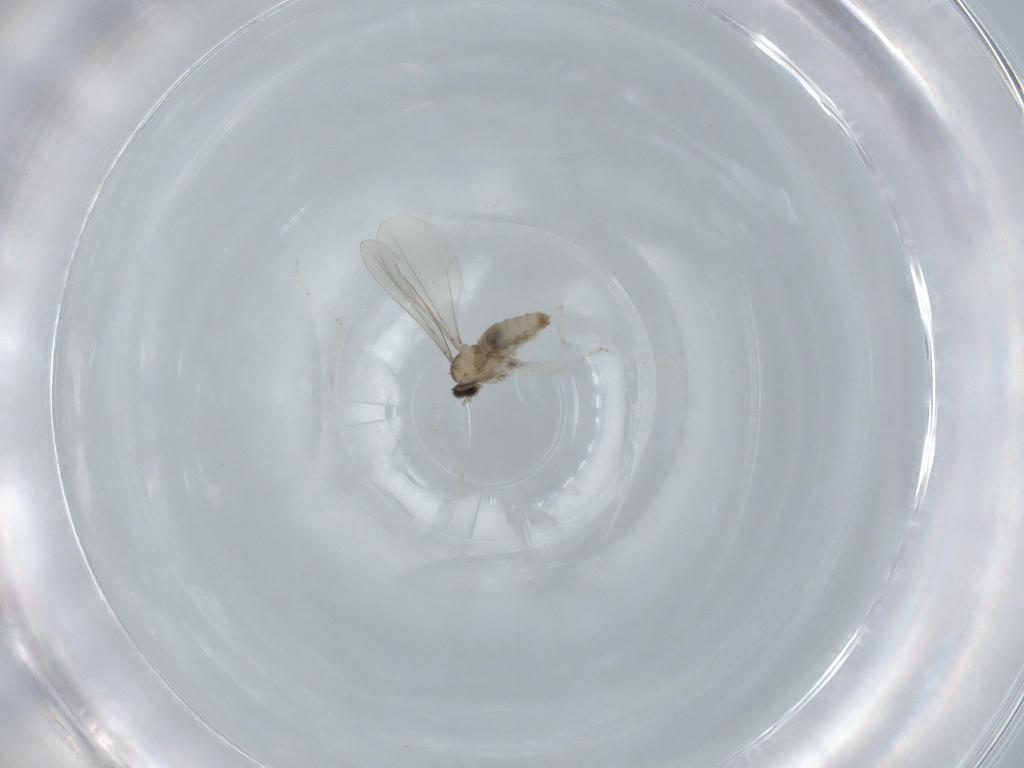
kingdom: Animalia
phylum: Arthropoda
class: Insecta
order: Diptera
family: Cecidomyiidae
